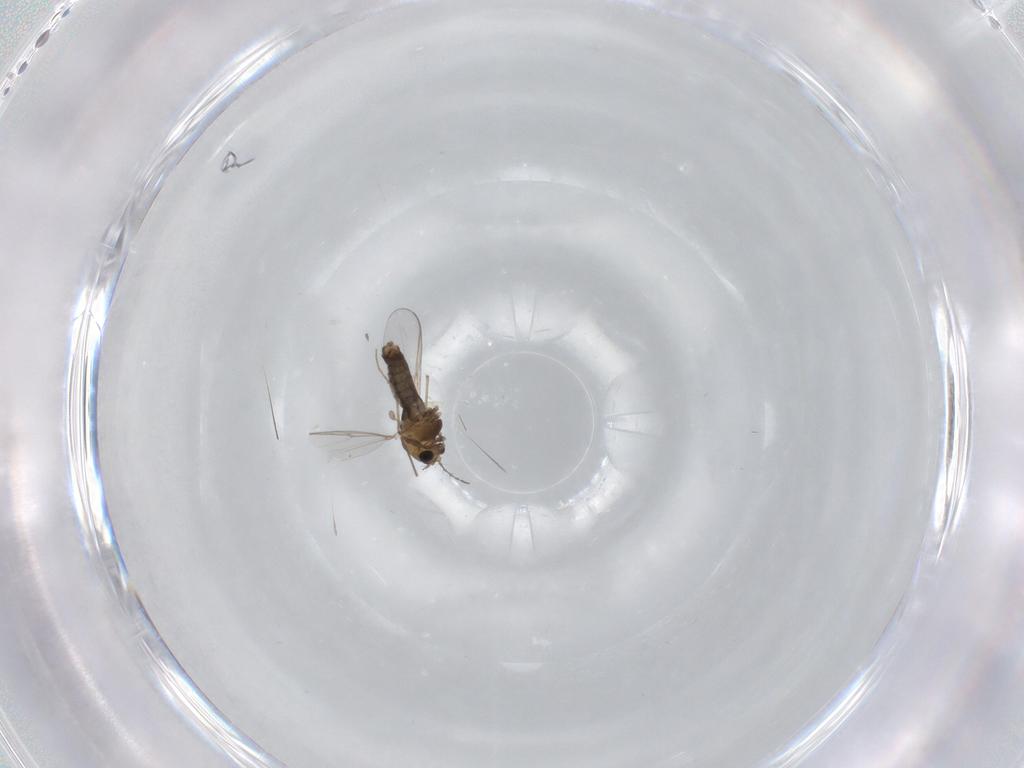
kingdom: Animalia
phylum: Arthropoda
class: Insecta
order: Diptera
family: Chironomidae
